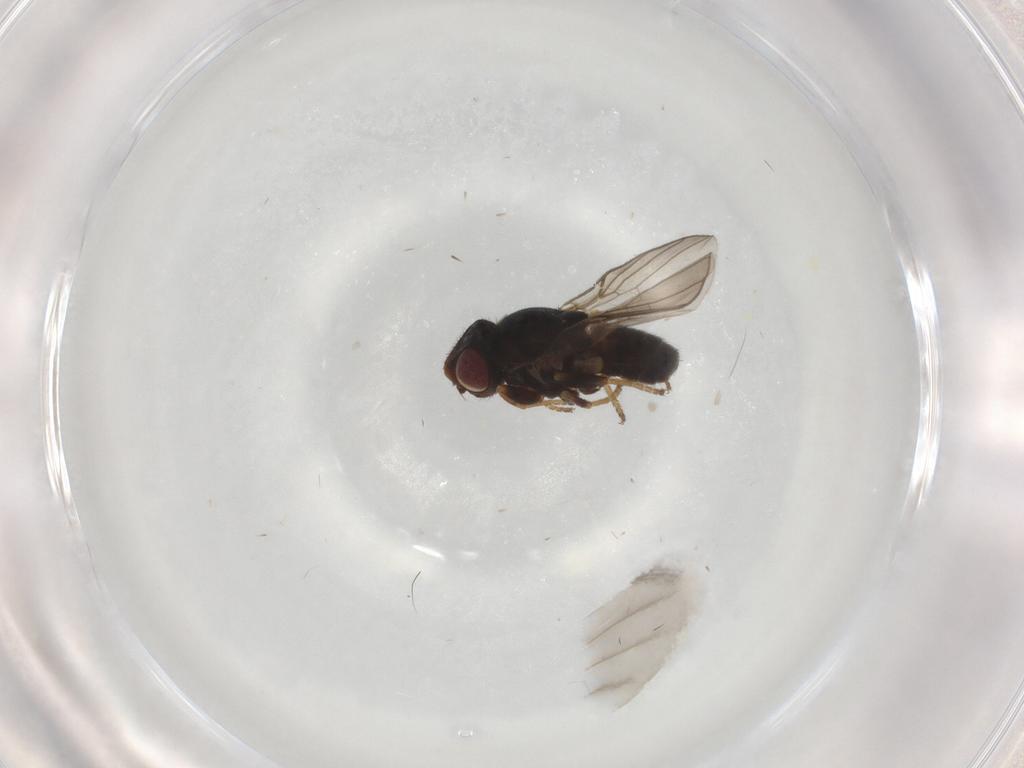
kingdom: Animalia
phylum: Arthropoda
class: Insecta
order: Diptera
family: Chloropidae
